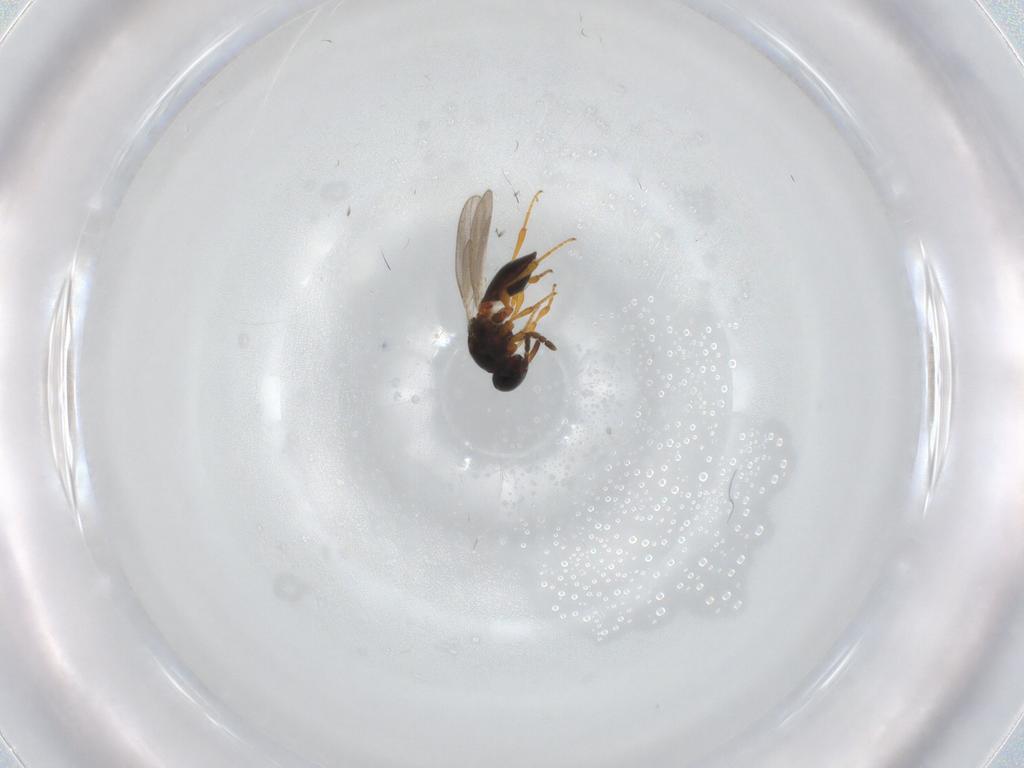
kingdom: Animalia
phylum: Arthropoda
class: Insecta
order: Hymenoptera
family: Platygastridae
